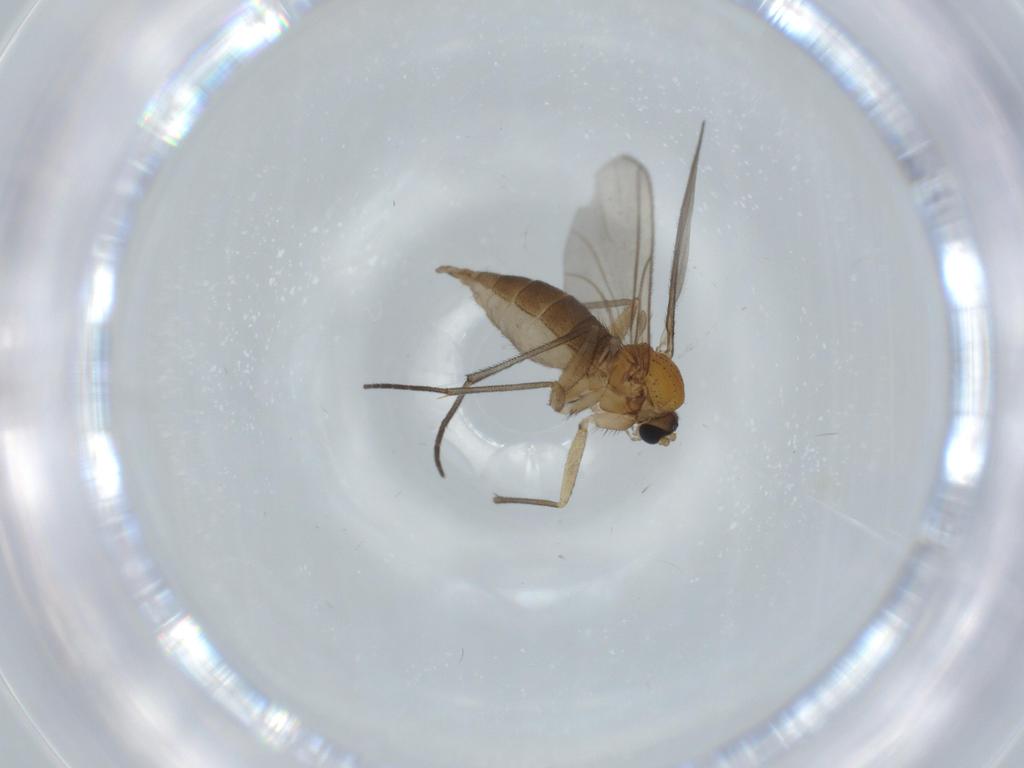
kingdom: Animalia
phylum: Arthropoda
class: Insecta
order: Diptera
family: Sciaridae
